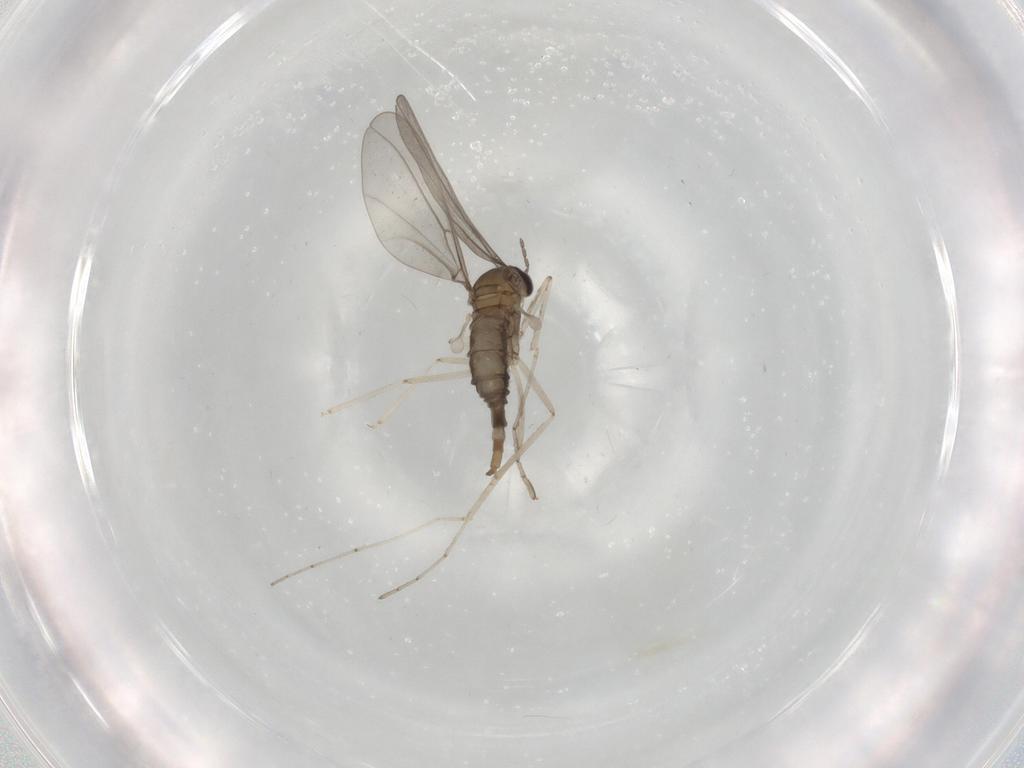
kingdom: Animalia
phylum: Arthropoda
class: Insecta
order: Diptera
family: Cecidomyiidae
